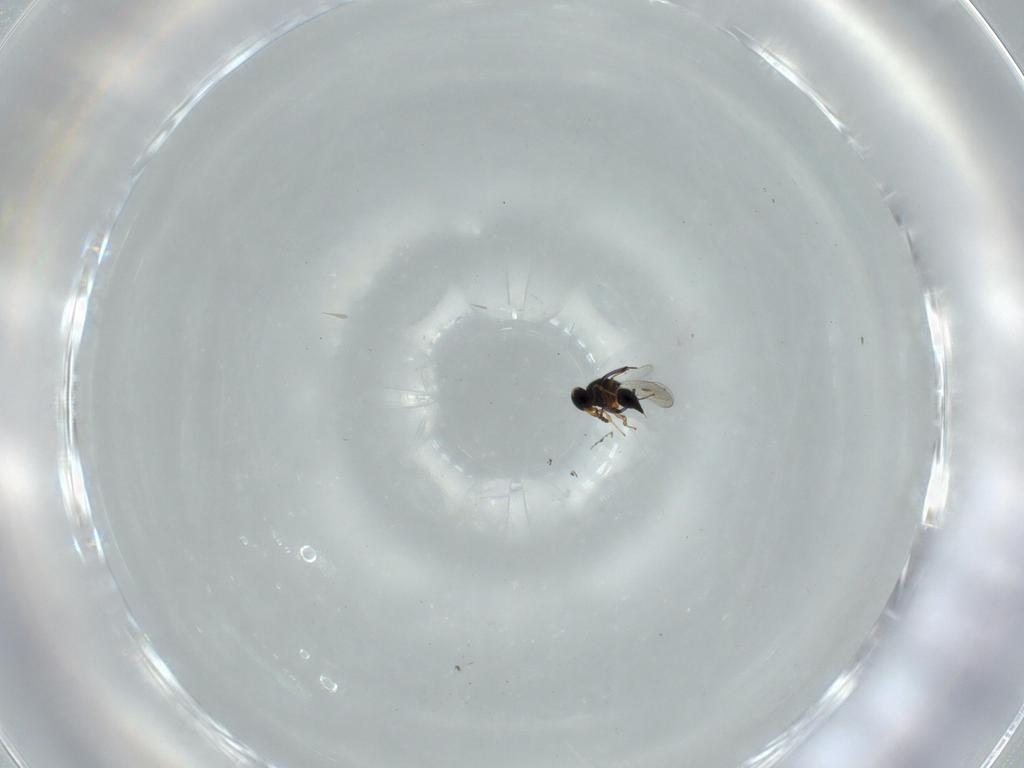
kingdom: Animalia
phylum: Arthropoda
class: Insecta
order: Hymenoptera
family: Platygastridae
